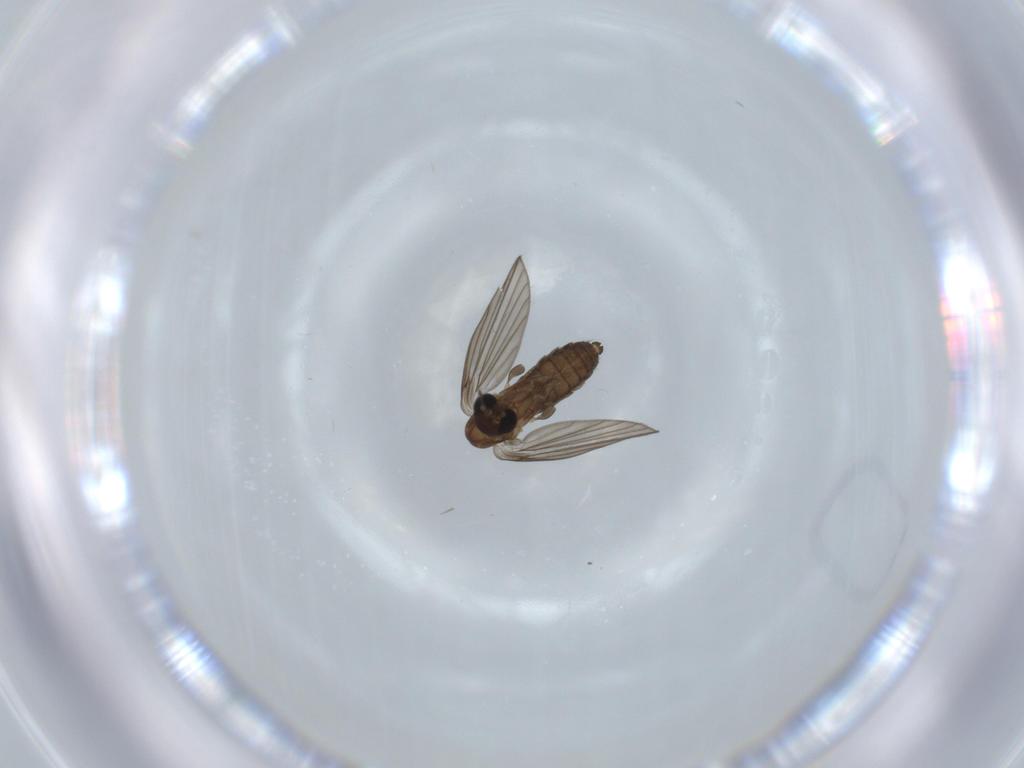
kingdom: Animalia
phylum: Arthropoda
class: Insecta
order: Diptera
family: Psychodidae
